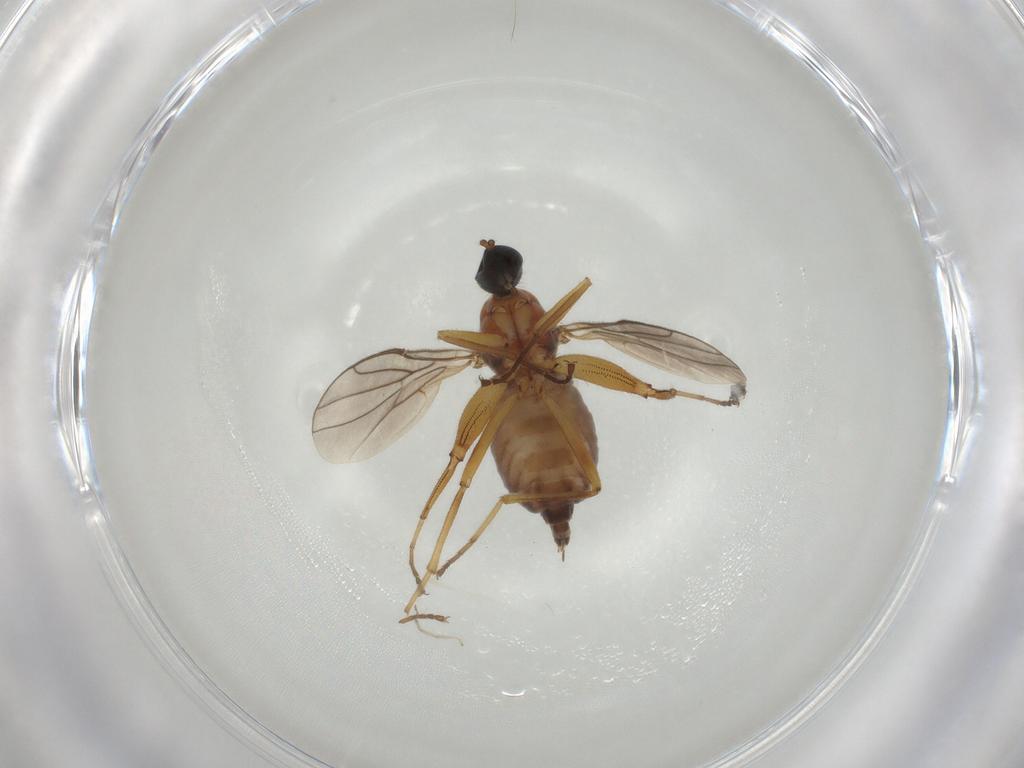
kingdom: Animalia
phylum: Arthropoda
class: Insecta
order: Diptera
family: Hybotidae
